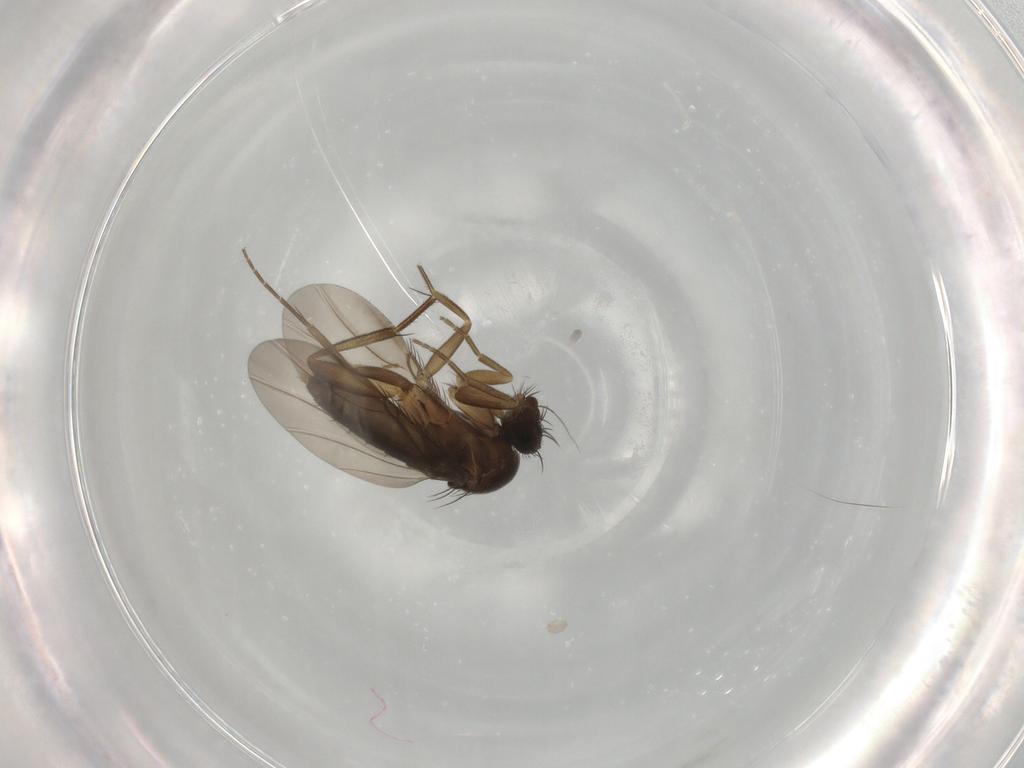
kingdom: Animalia
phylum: Arthropoda
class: Insecta
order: Diptera
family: Phoridae
